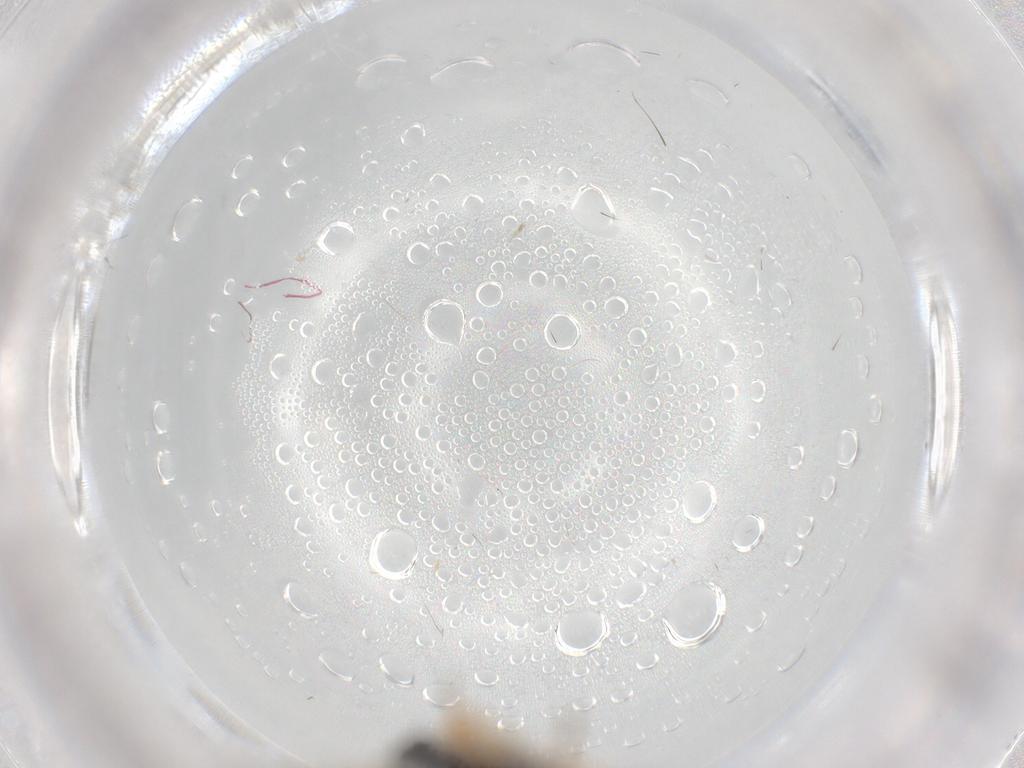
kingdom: Animalia
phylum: Arthropoda
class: Insecta
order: Hymenoptera
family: Braconidae
